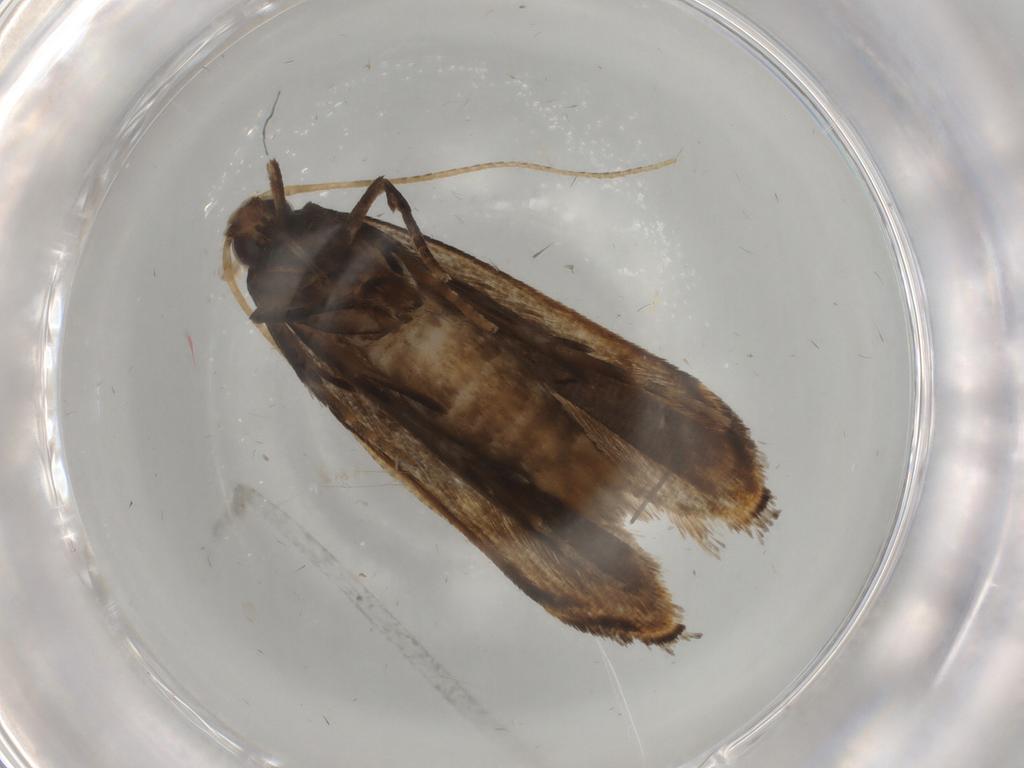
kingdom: Animalia
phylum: Arthropoda
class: Insecta
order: Lepidoptera
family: Gelechiidae
